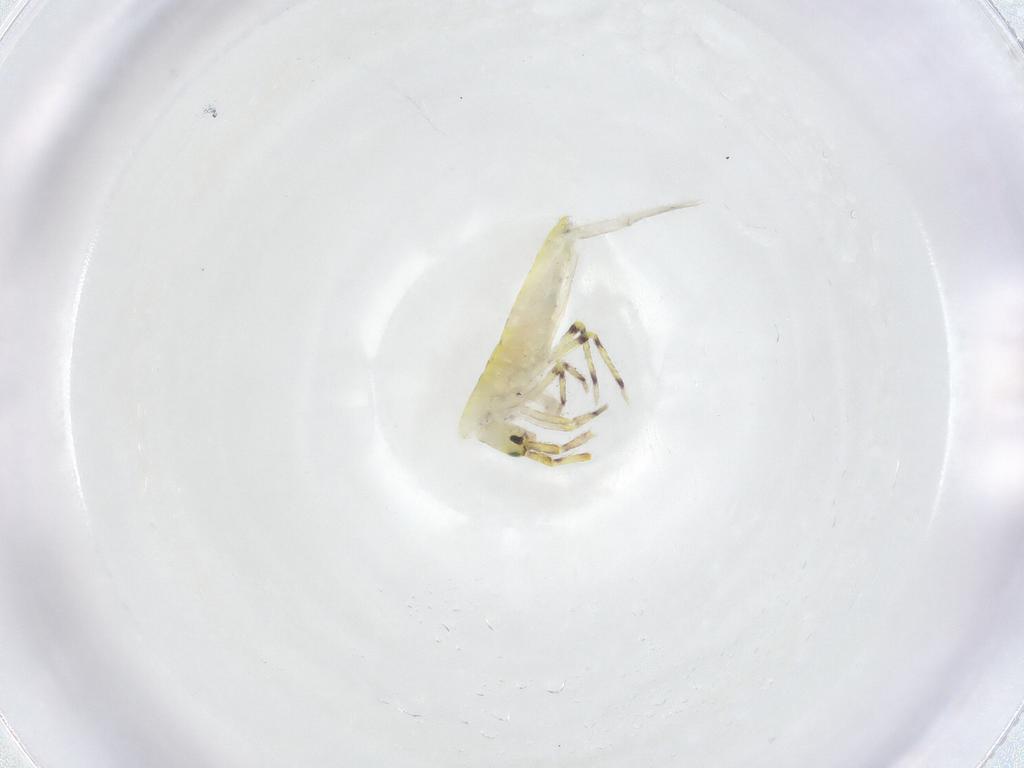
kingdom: Animalia
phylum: Arthropoda
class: Collembola
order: Entomobryomorpha
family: Entomobryidae
